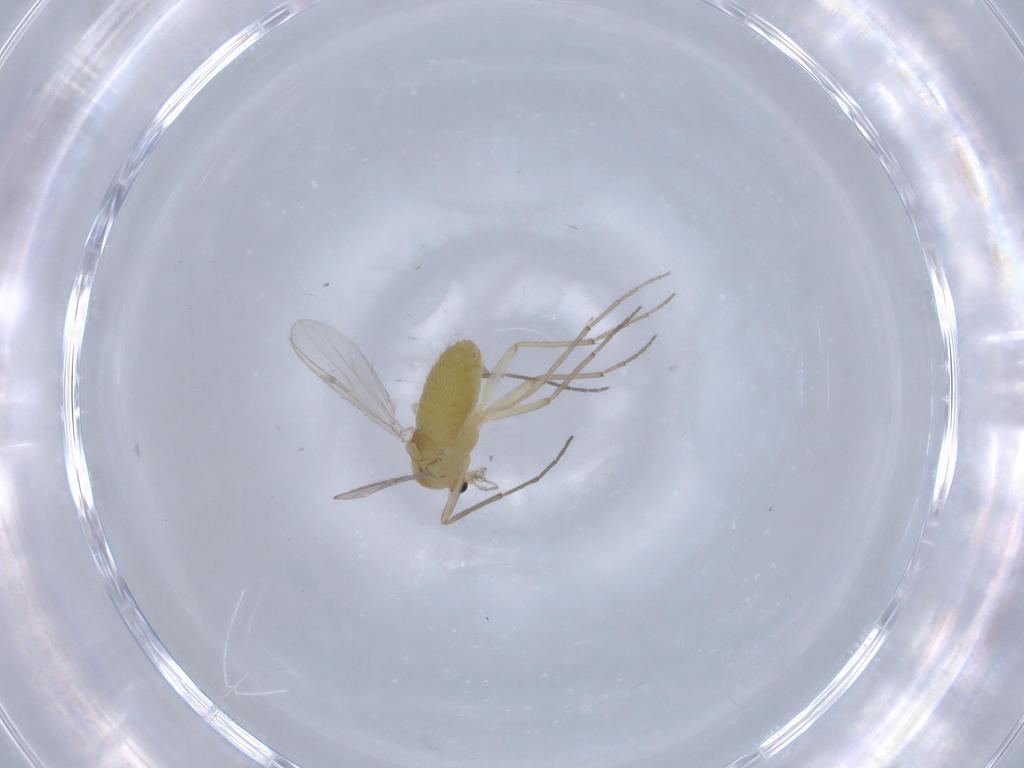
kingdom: Animalia
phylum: Arthropoda
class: Insecta
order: Diptera
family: Chironomidae
